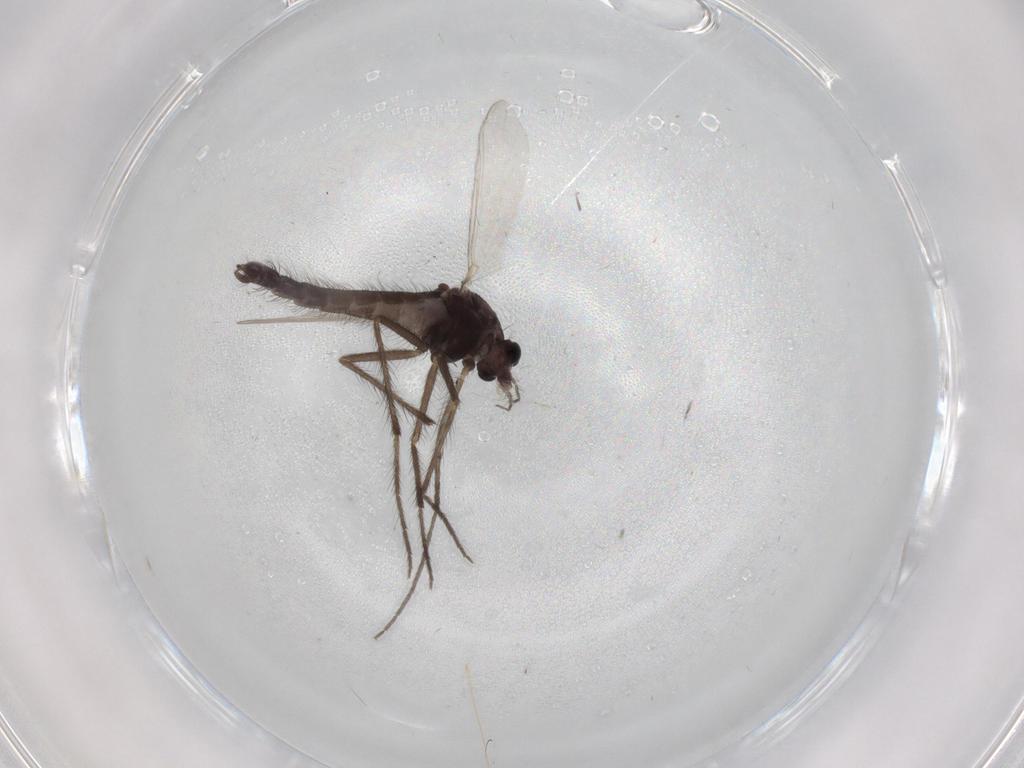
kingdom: Animalia
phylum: Arthropoda
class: Insecta
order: Diptera
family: Chironomidae
